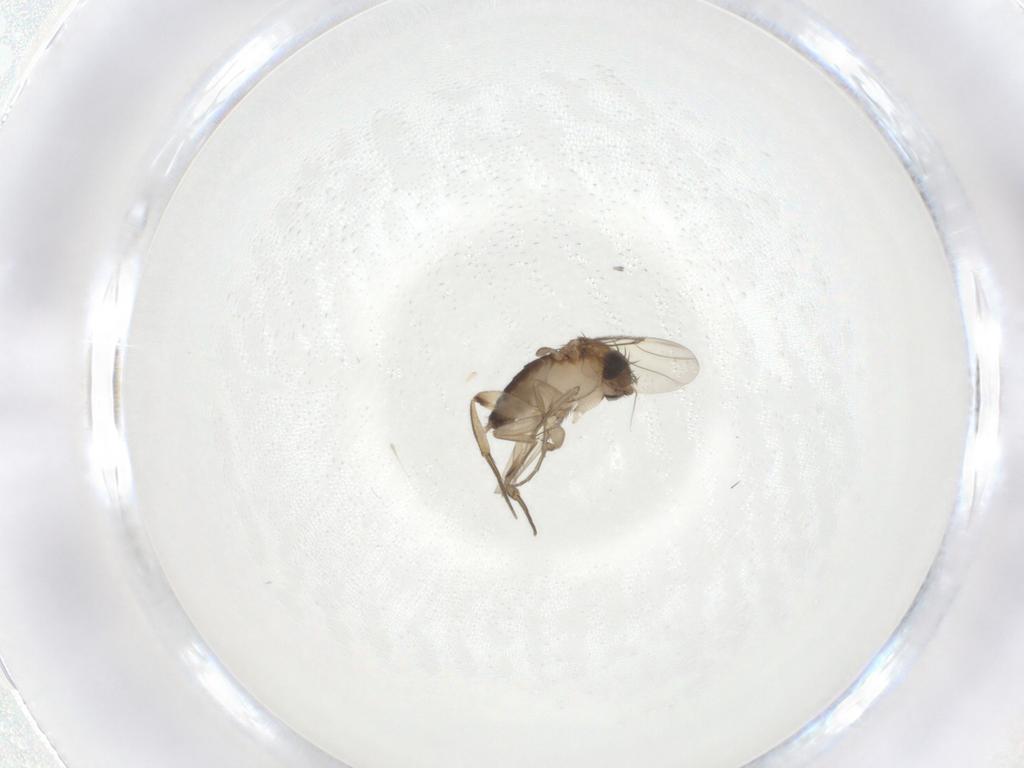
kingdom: Animalia
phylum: Arthropoda
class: Insecta
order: Diptera
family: Phoridae
